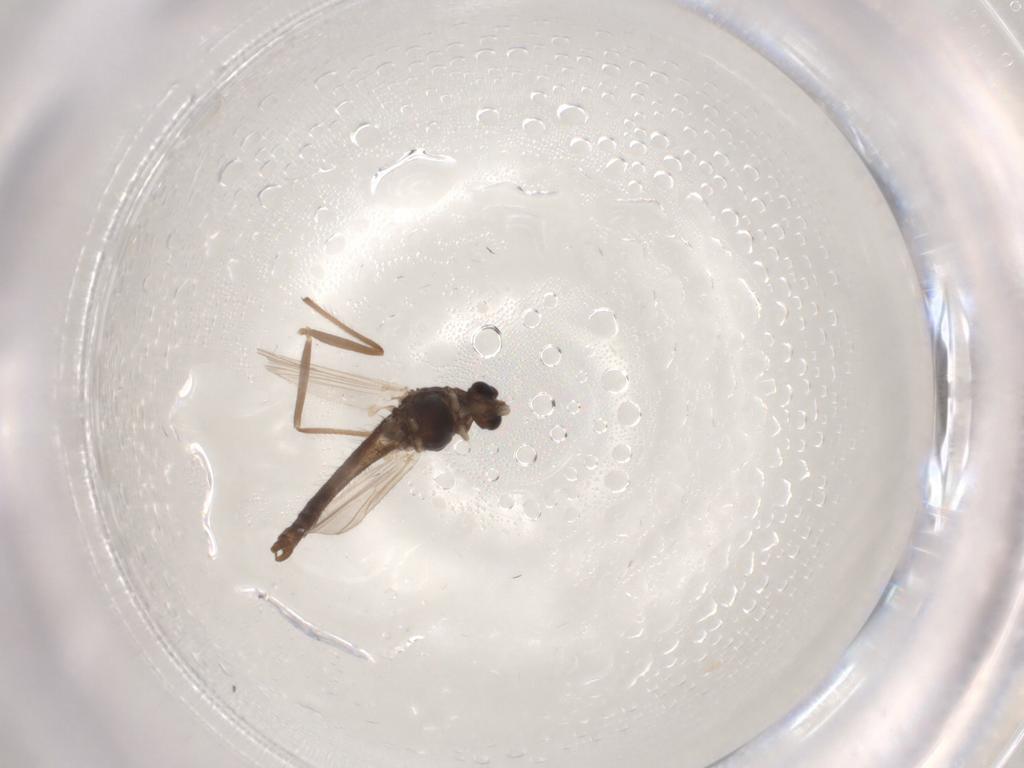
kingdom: Animalia
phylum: Arthropoda
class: Insecta
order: Diptera
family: Chironomidae
